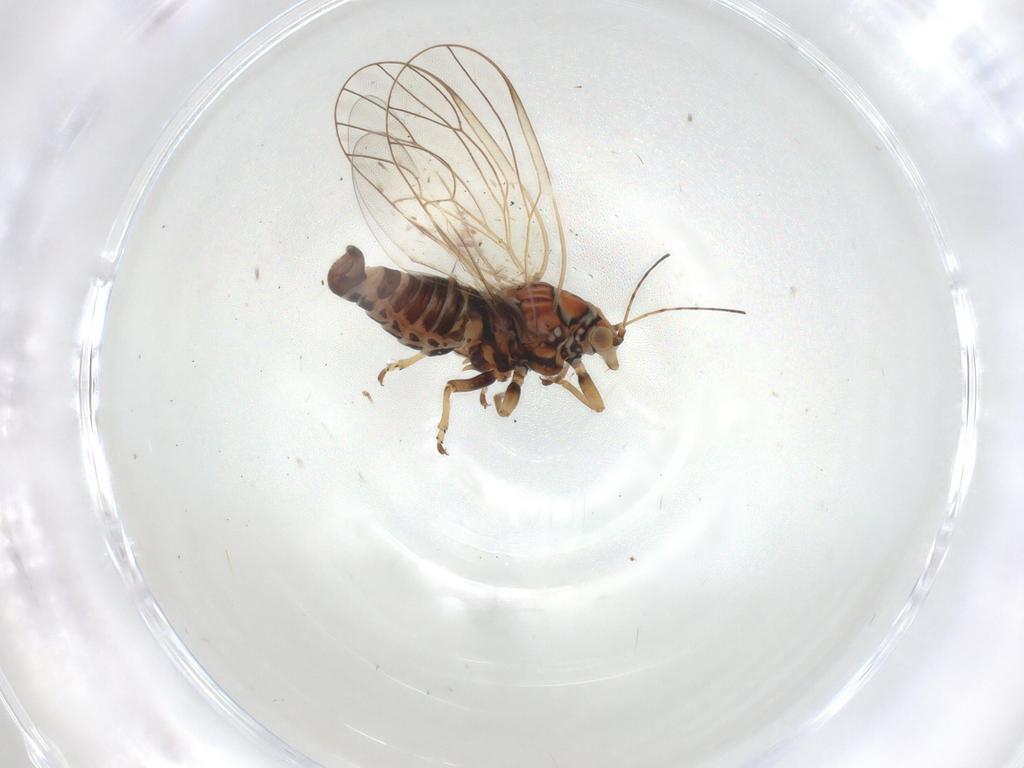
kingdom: Animalia
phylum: Arthropoda
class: Insecta
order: Hemiptera
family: Psyllidae
